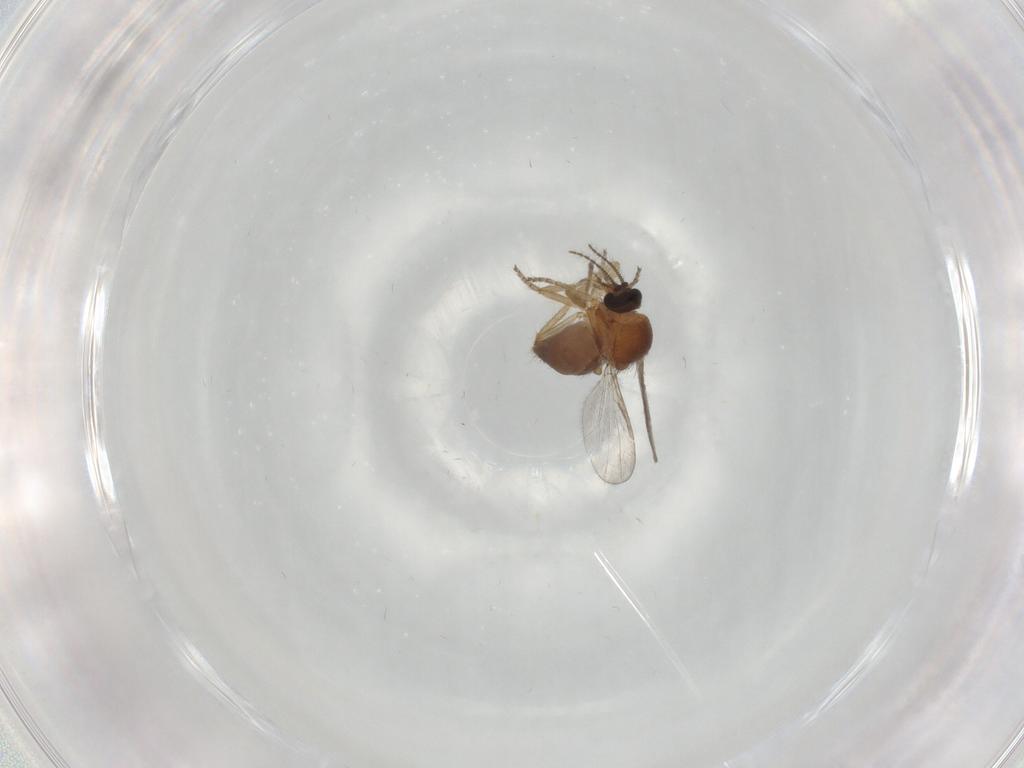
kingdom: Animalia
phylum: Arthropoda
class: Insecta
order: Diptera
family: Ceratopogonidae
